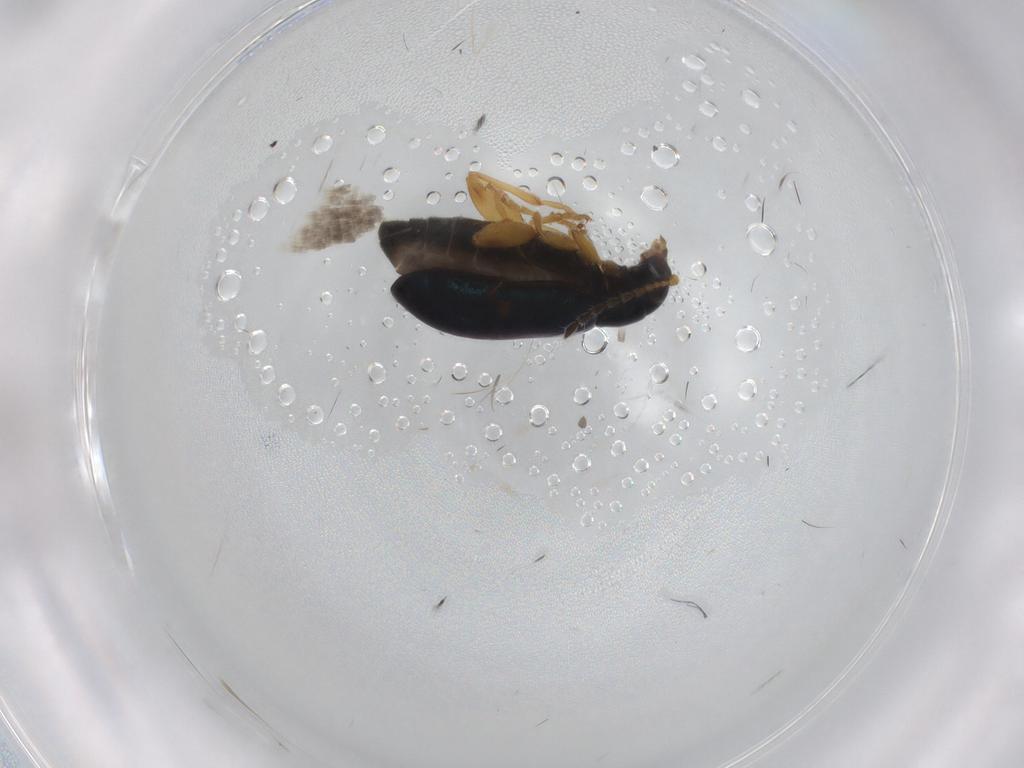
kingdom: Animalia
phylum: Arthropoda
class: Insecta
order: Coleoptera
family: Chrysomelidae
